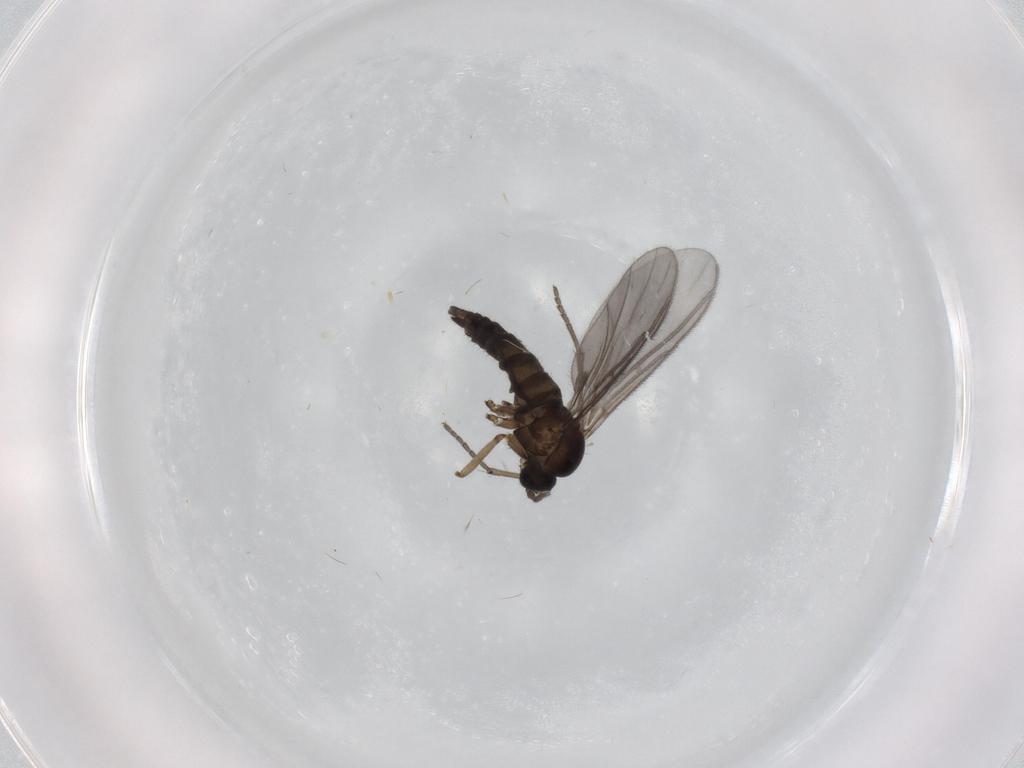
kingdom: Animalia
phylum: Arthropoda
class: Insecta
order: Diptera
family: Sciaridae
